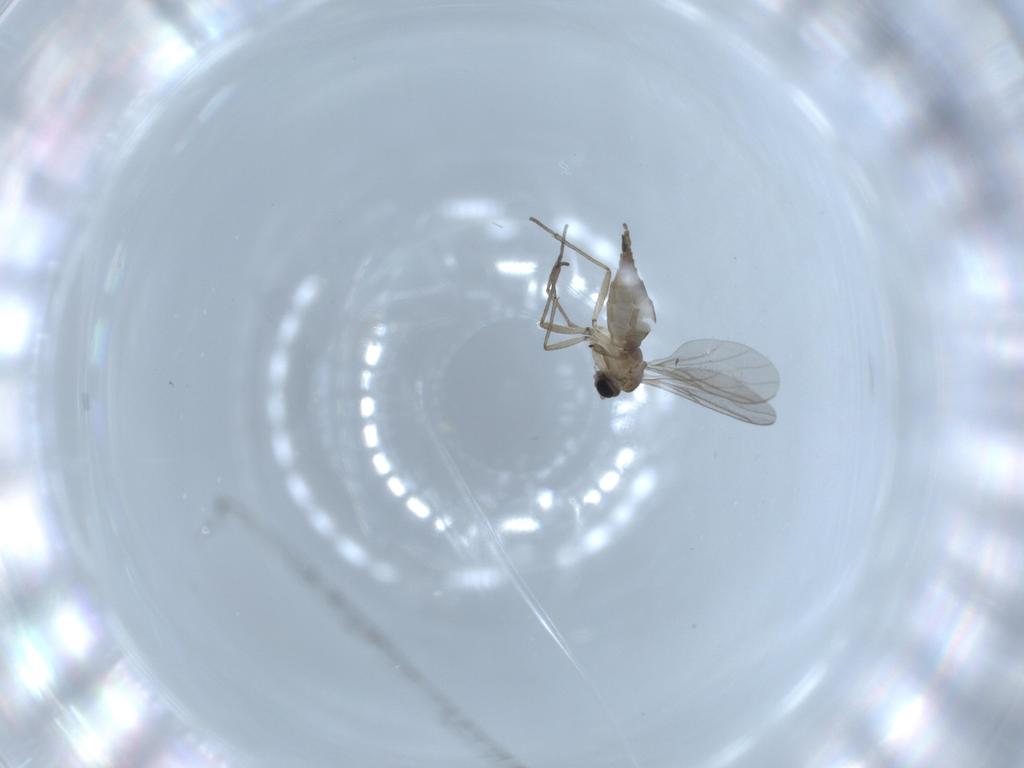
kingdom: Animalia
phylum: Arthropoda
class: Insecta
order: Diptera
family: Sciaridae
